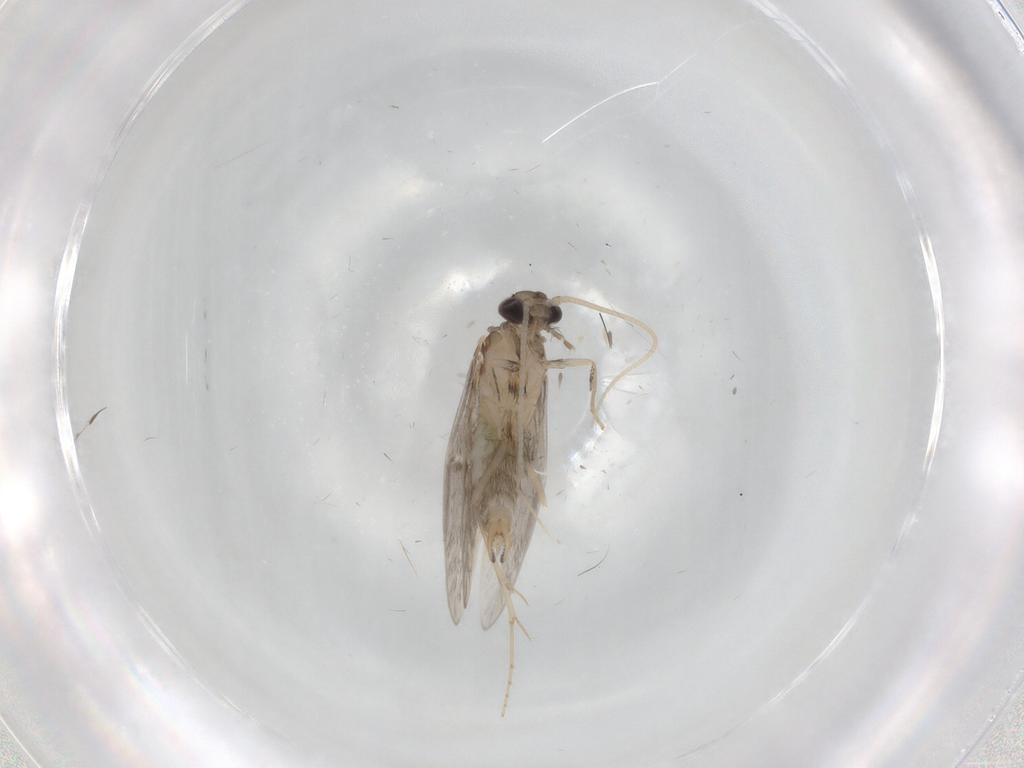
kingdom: Animalia
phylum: Arthropoda
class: Insecta
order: Trichoptera
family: Hydroptilidae
